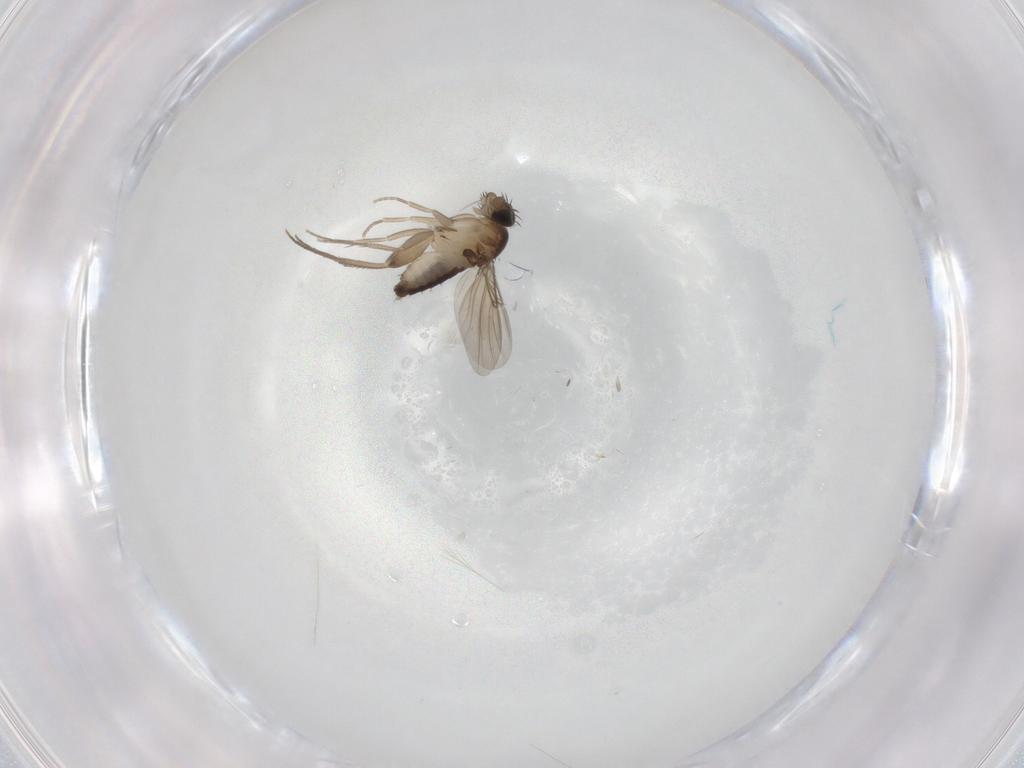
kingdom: Animalia
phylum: Arthropoda
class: Insecta
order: Diptera
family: Phoridae
